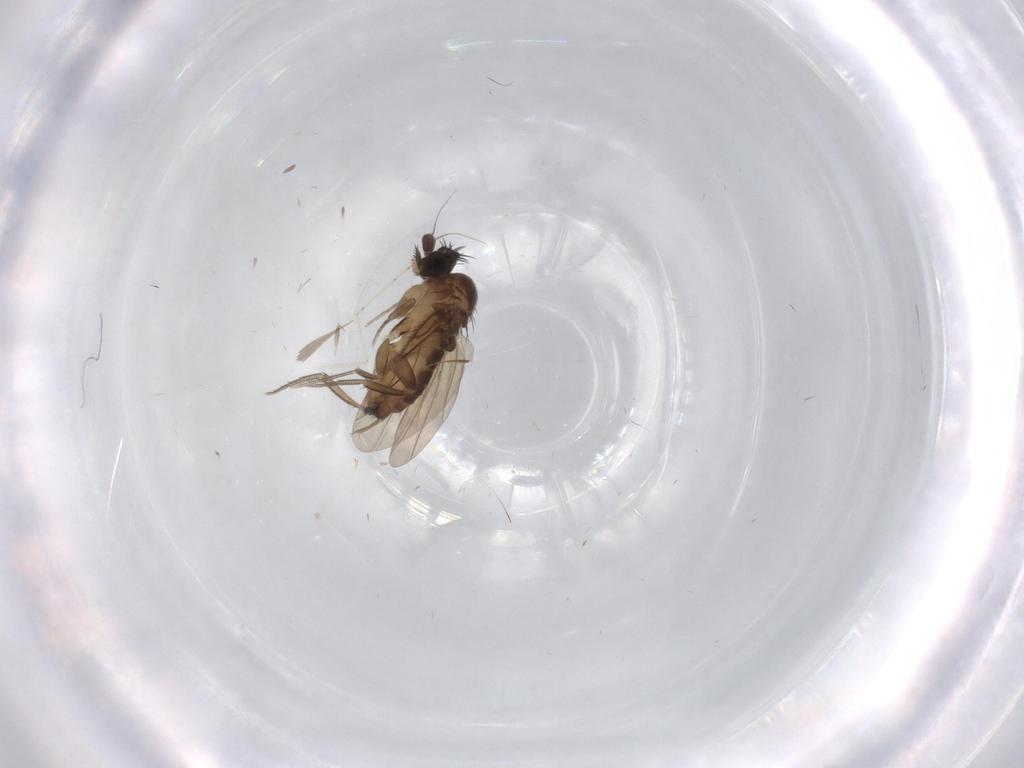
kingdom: Animalia
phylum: Arthropoda
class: Insecta
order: Diptera
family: Phoridae
